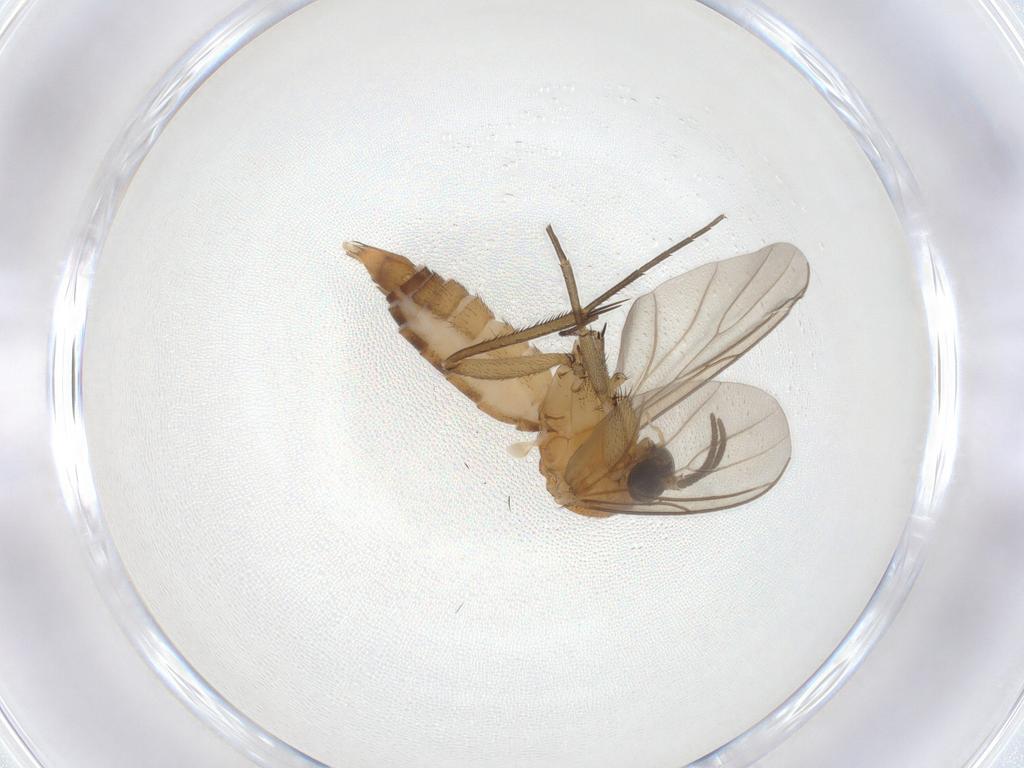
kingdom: Animalia
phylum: Arthropoda
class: Insecta
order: Diptera
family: Mycetophilidae
